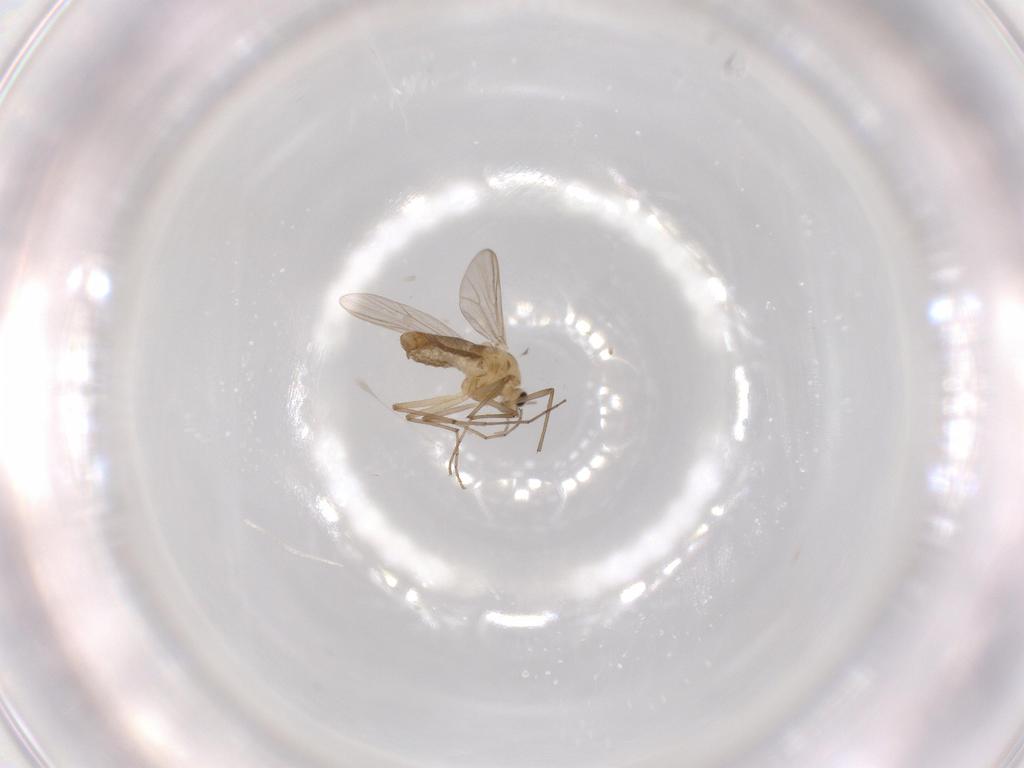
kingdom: Animalia
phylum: Arthropoda
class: Insecta
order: Diptera
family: Chironomidae
